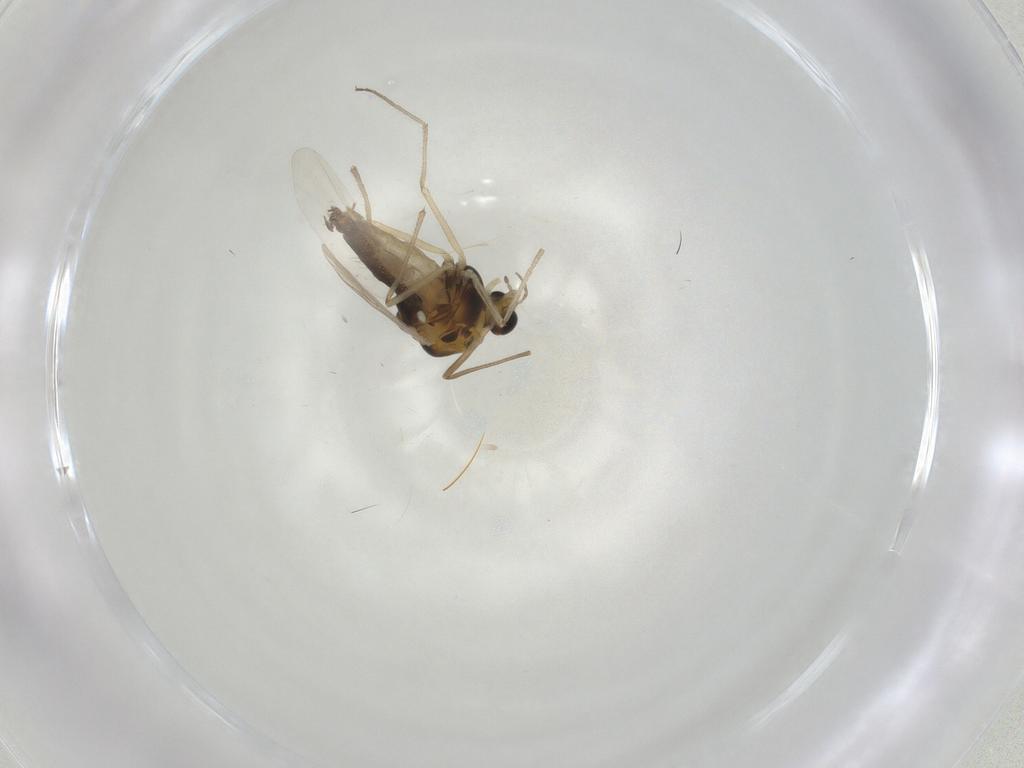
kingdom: Animalia
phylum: Arthropoda
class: Insecta
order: Diptera
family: Chironomidae
